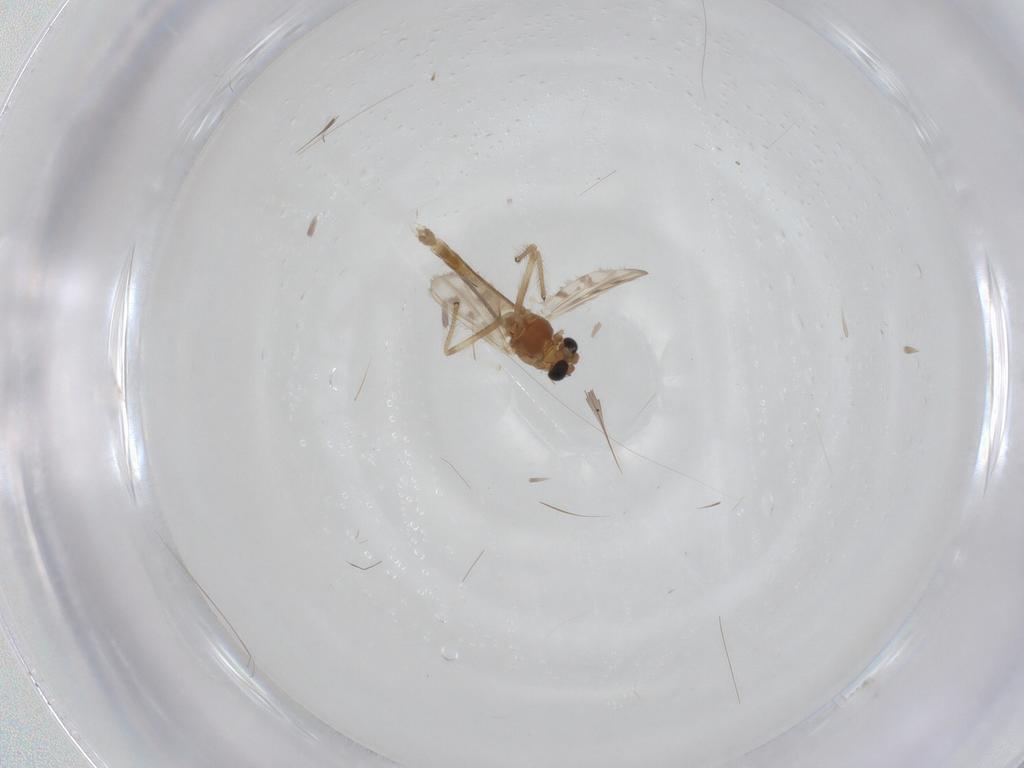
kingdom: Animalia
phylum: Arthropoda
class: Insecta
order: Diptera
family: Chironomidae
